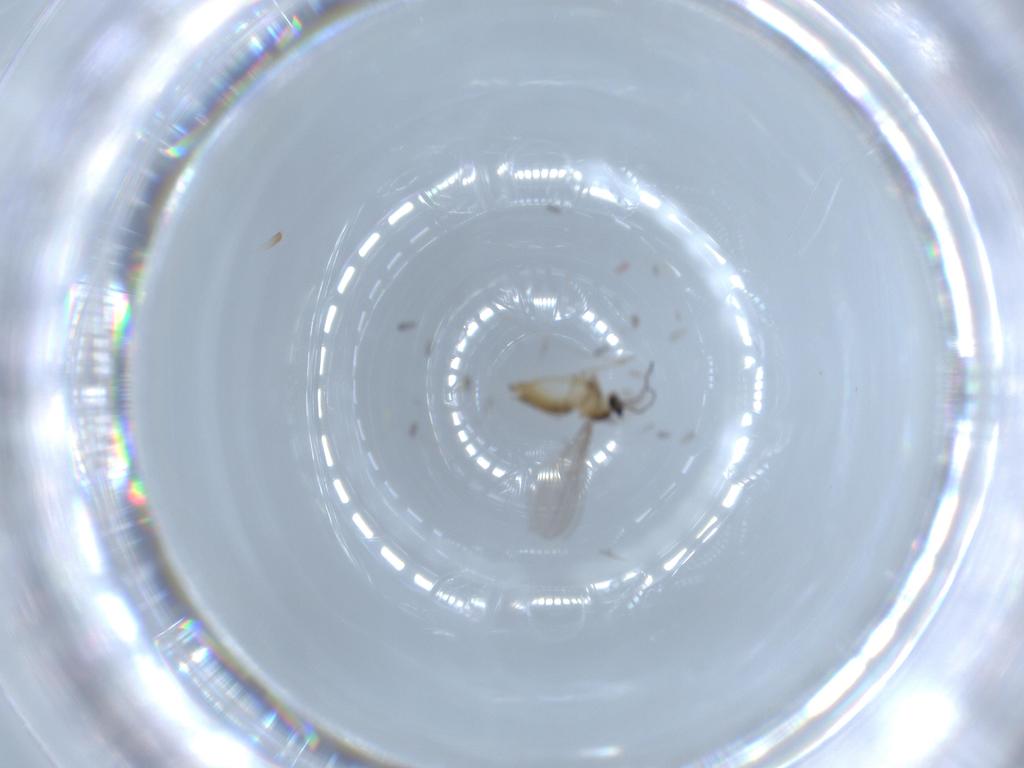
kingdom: Animalia
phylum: Arthropoda
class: Insecta
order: Diptera
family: Cecidomyiidae
